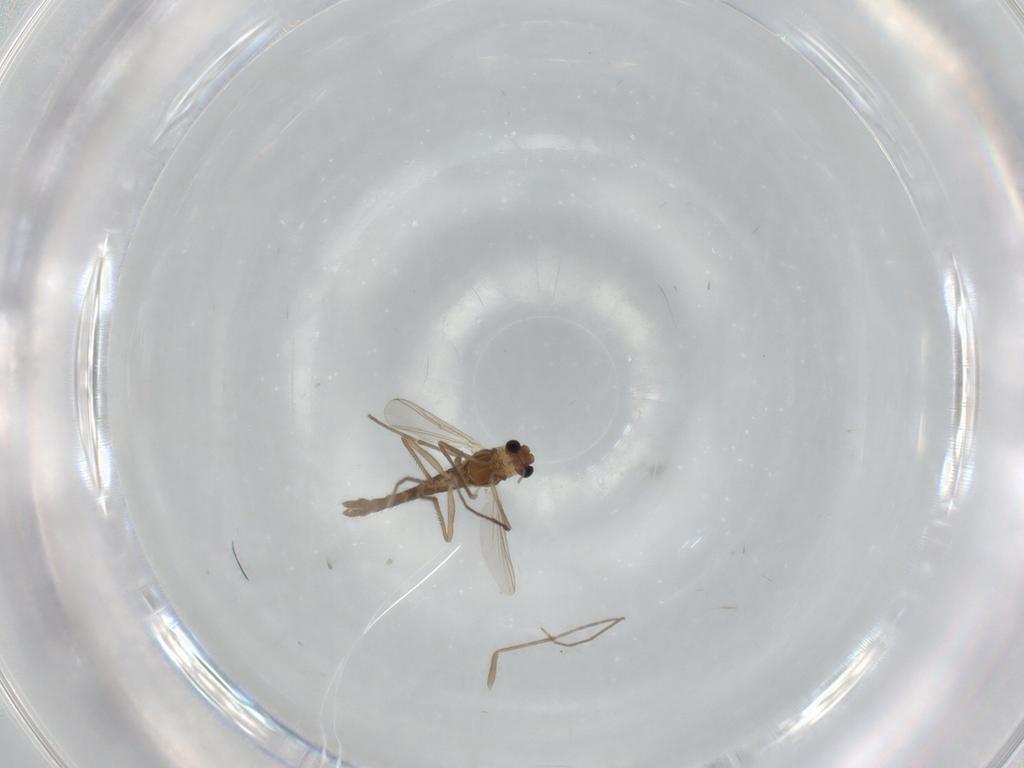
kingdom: Animalia
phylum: Arthropoda
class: Insecta
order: Diptera
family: Chironomidae
